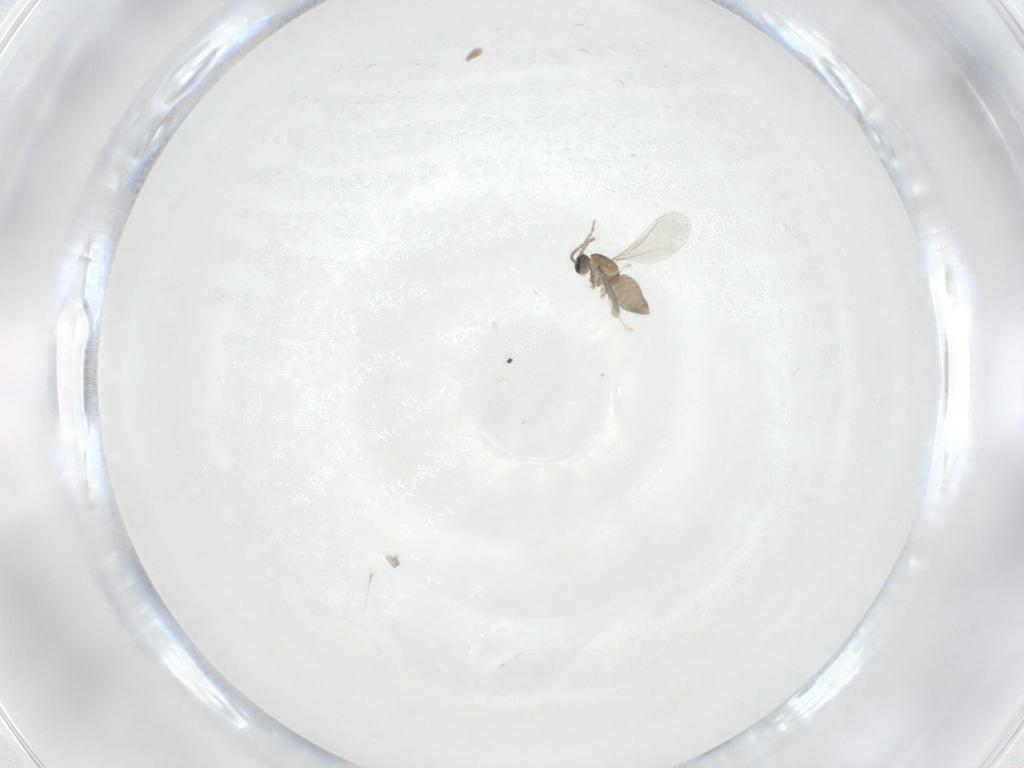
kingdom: Animalia
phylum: Arthropoda
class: Insecta
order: Diptera
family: Cecidomyiidae
